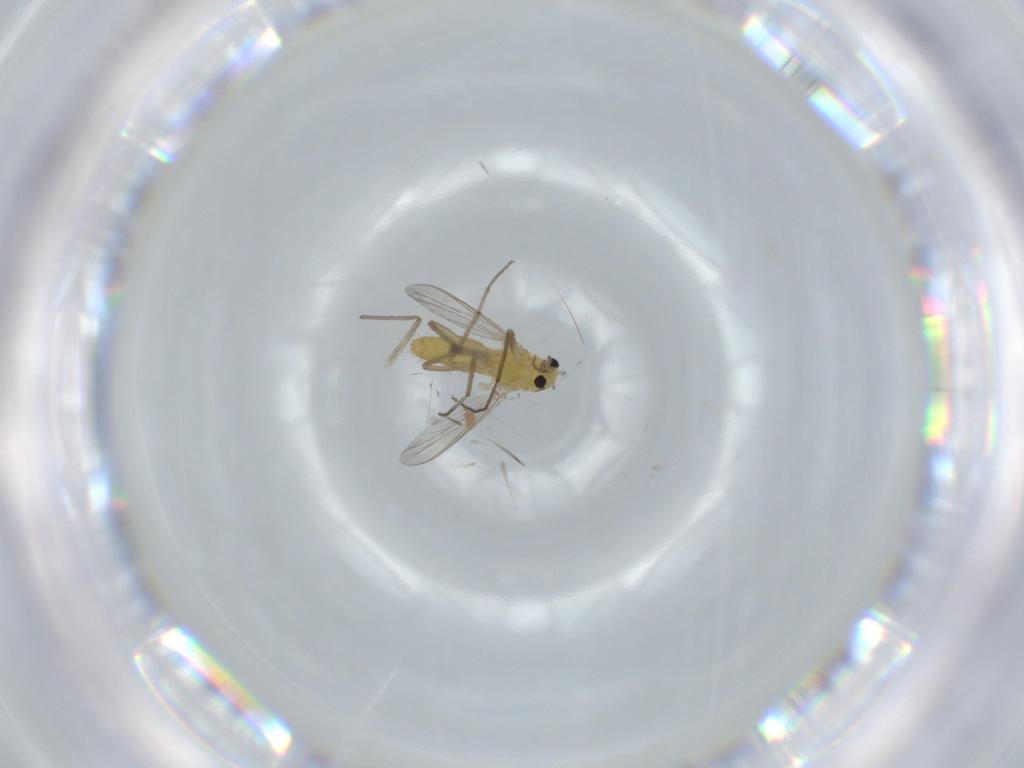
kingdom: Animalia
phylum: Arthropoda
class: Insecta
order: Diptera
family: Chironomidae
